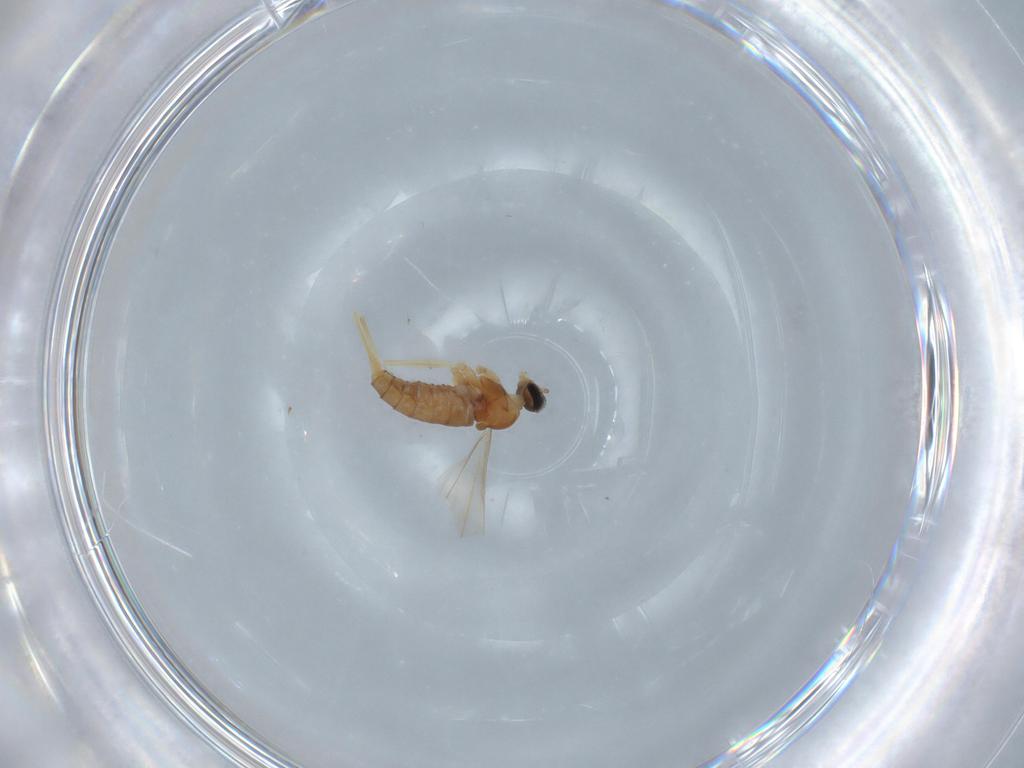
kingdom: Animalia
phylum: Arthropoda
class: Insecta
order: Diptera
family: Cecidomyiidae
